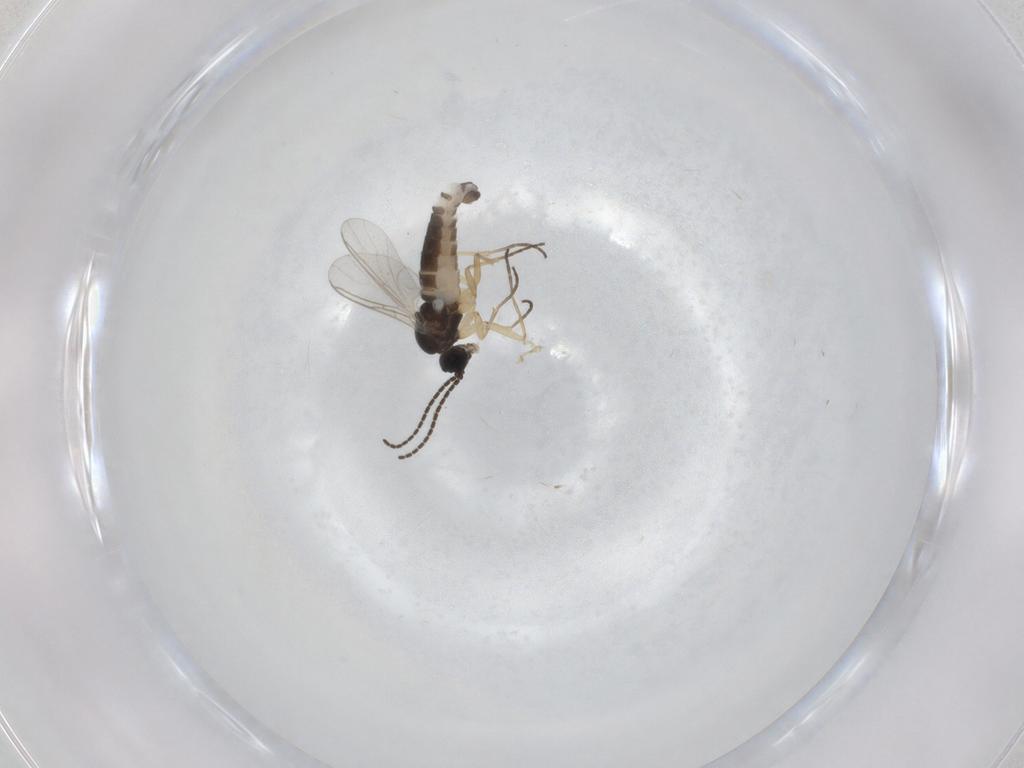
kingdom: Animalia
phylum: Arthropoda
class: Insecta
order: Diptera
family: Sciaridae
